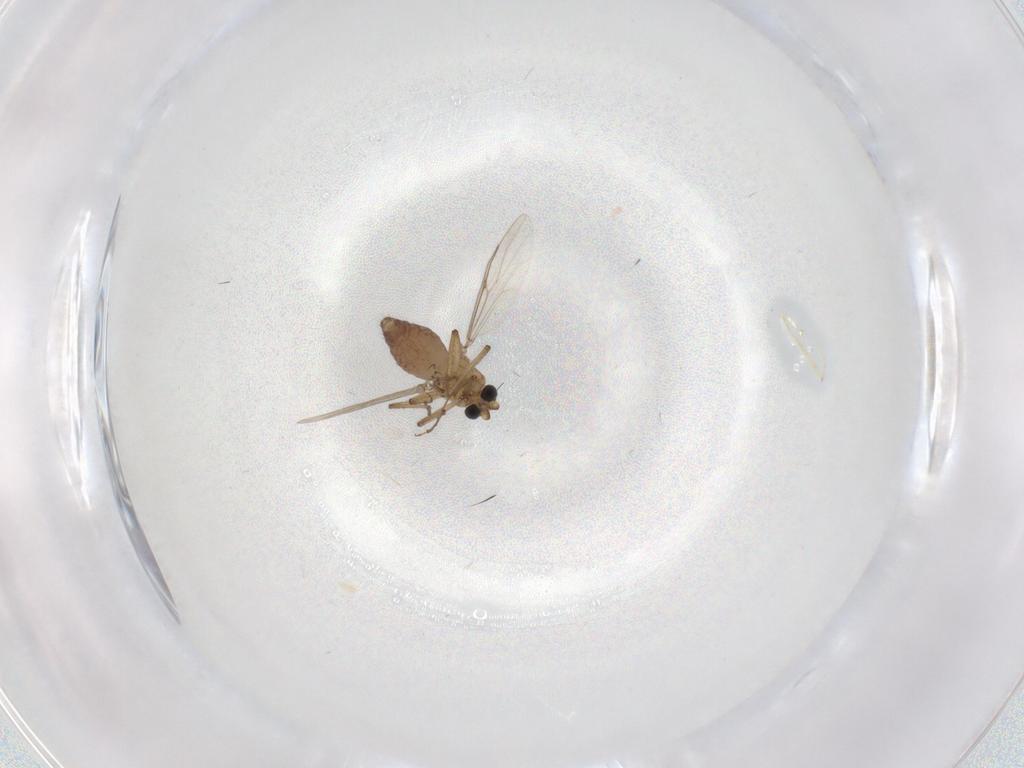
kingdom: Animalia
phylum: Arthropoda
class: Insecta
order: Diptera
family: Ceratopogonidae
